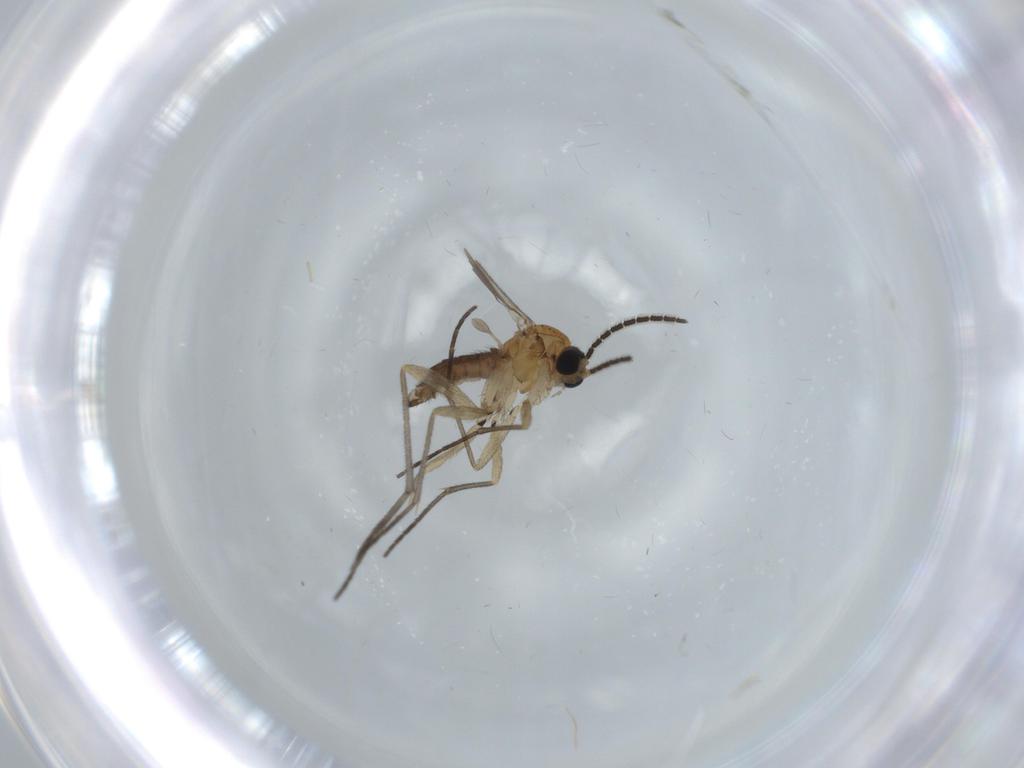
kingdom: Animalia
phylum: Arthropoda
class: Insecta
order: Diptera
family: Sciaridae
